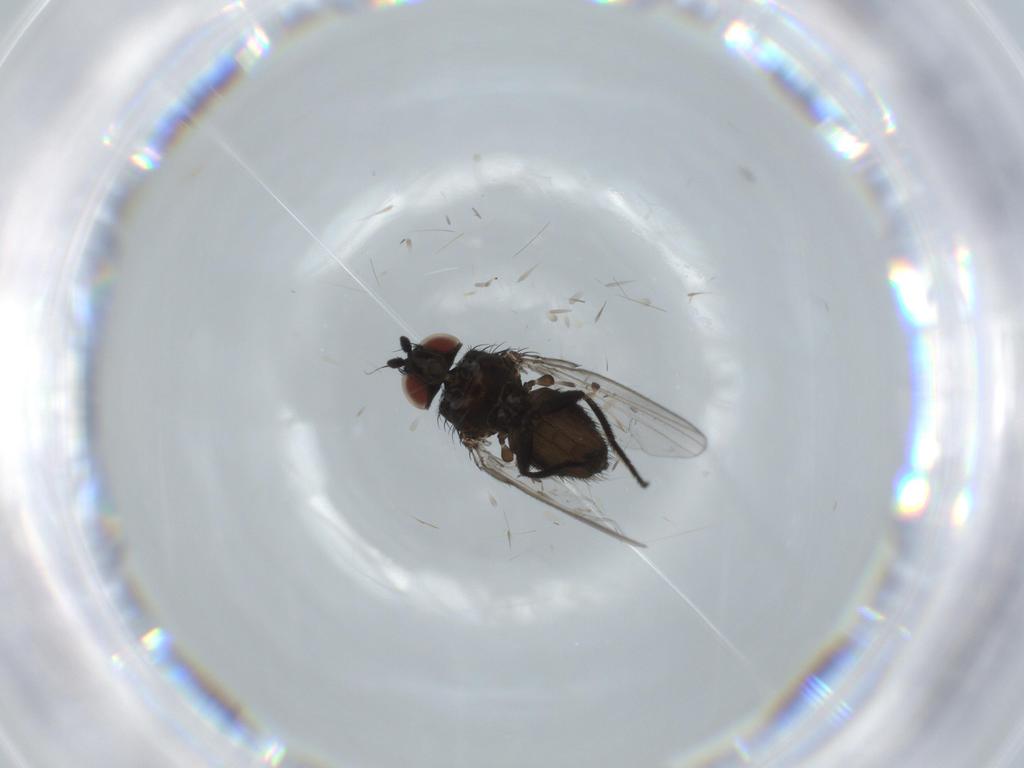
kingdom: Animalia
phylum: Arthropoda
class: Insecta
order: Diptera
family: Milichiidae
